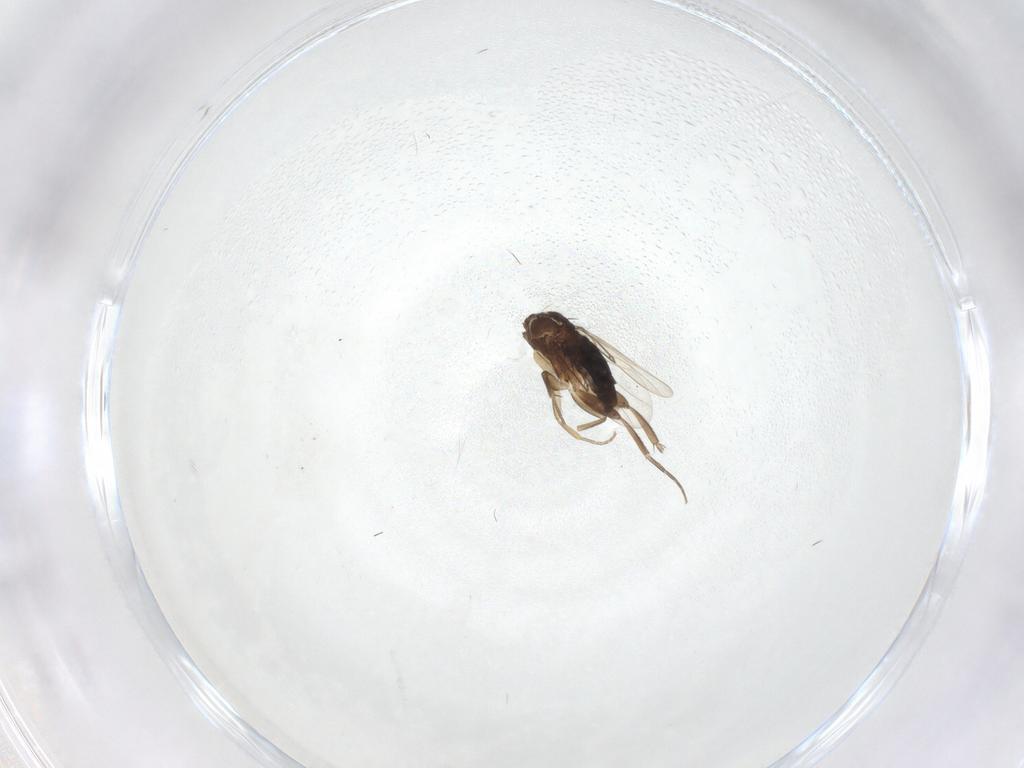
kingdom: Animalia
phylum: Arthropoda
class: Insecta
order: Diptera
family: Phoridae
